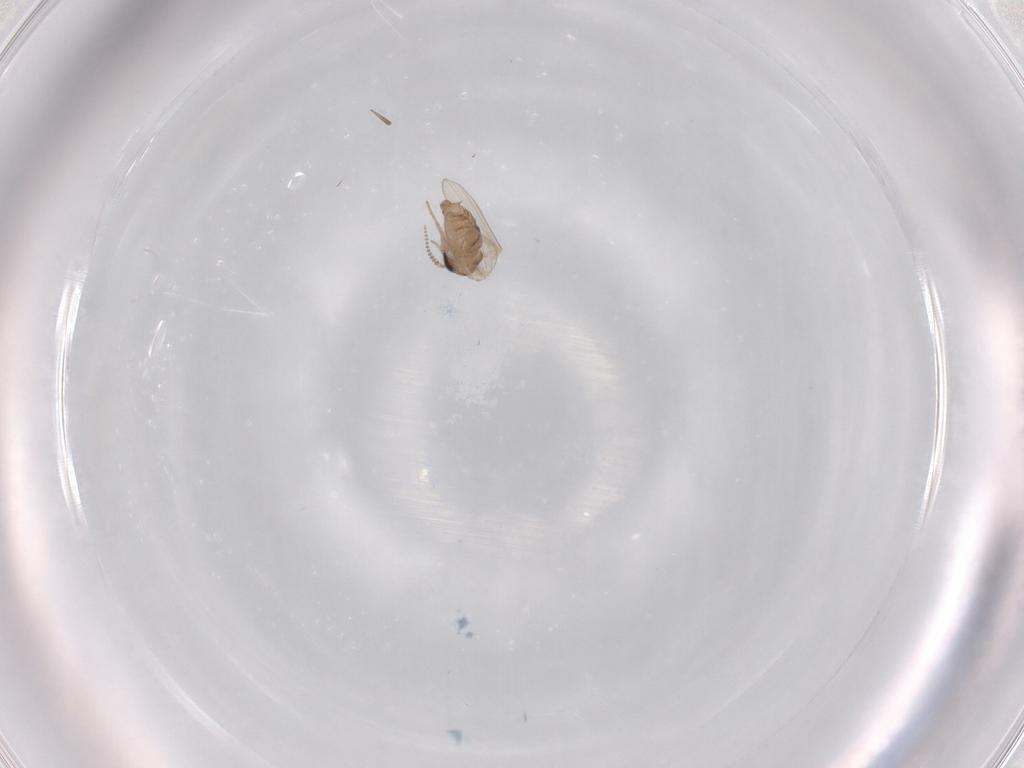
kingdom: Animalia
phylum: Arthropoda
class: Insecta
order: Diptera
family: Psychodidae
